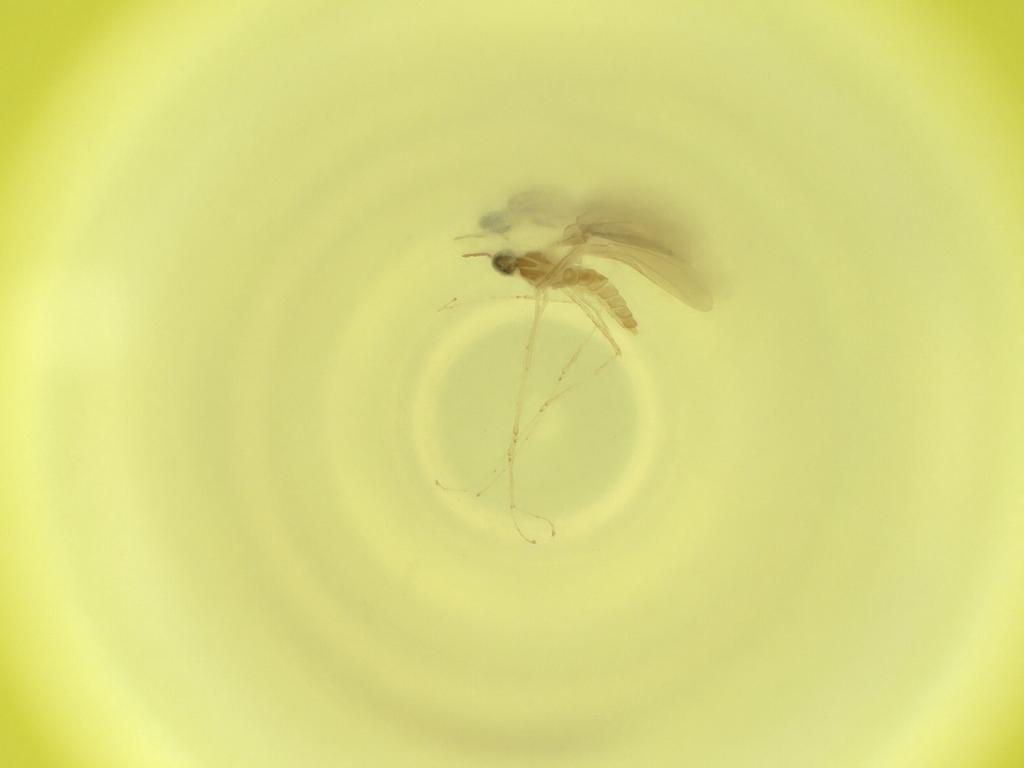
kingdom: Animalia
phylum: Arthropoda
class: Insecta
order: Diptera
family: Cecidomyiidae
